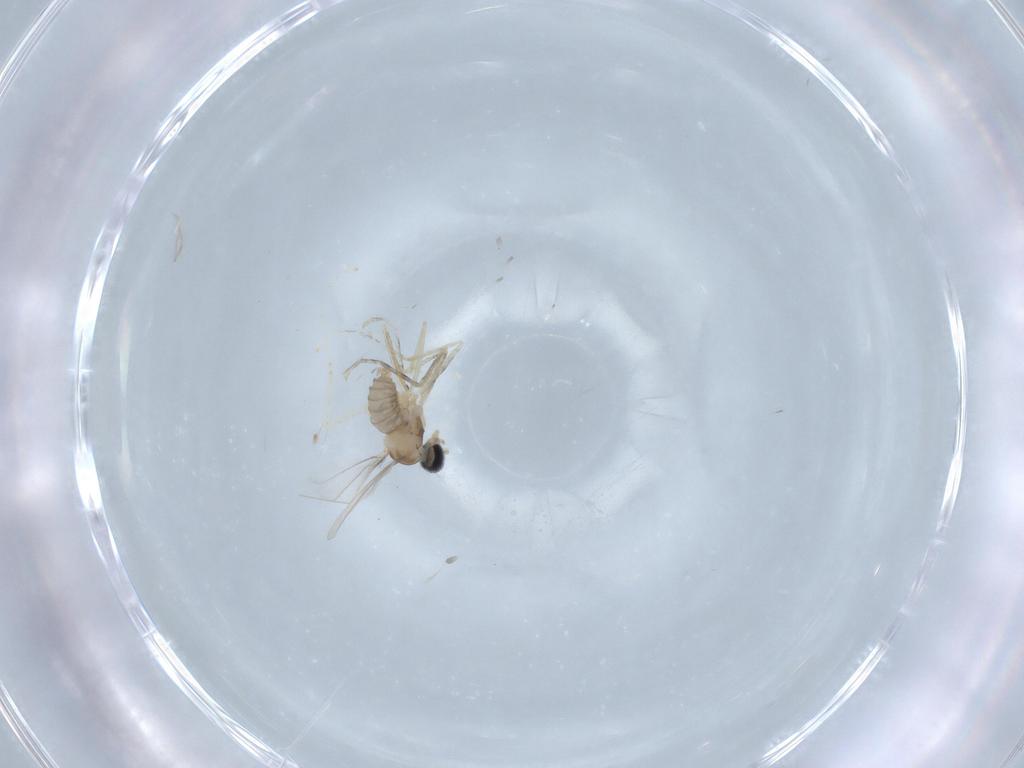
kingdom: Animalia
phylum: Arthropoda
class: Insecta
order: Diptera
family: Cecidomyiidae
